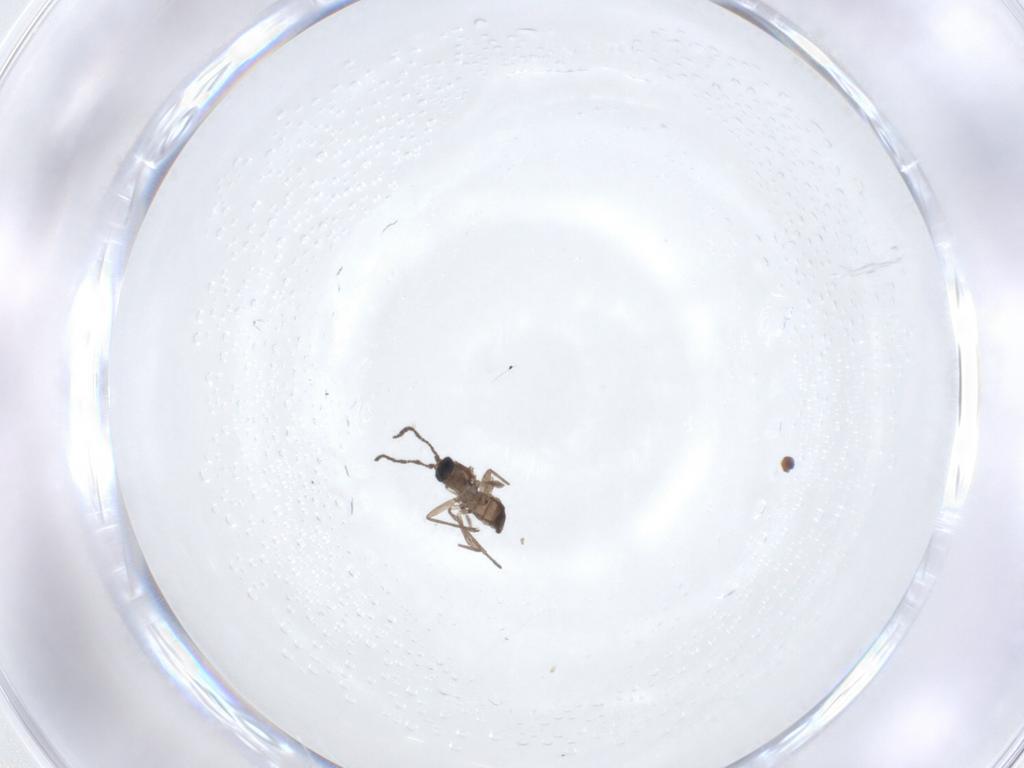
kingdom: Animalia
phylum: Arthropoda
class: Insecta
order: Diptera
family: Sciaridae
